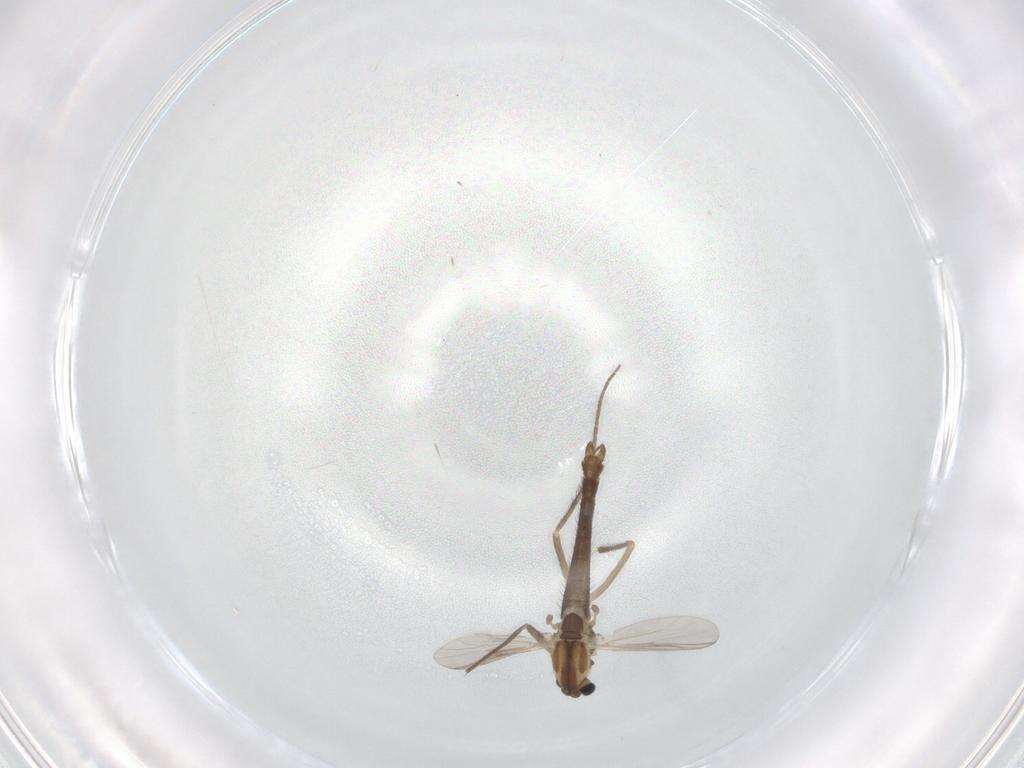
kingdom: Animalia
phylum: Arthropoda
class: Insecta
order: Diptera
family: Chironomidae
